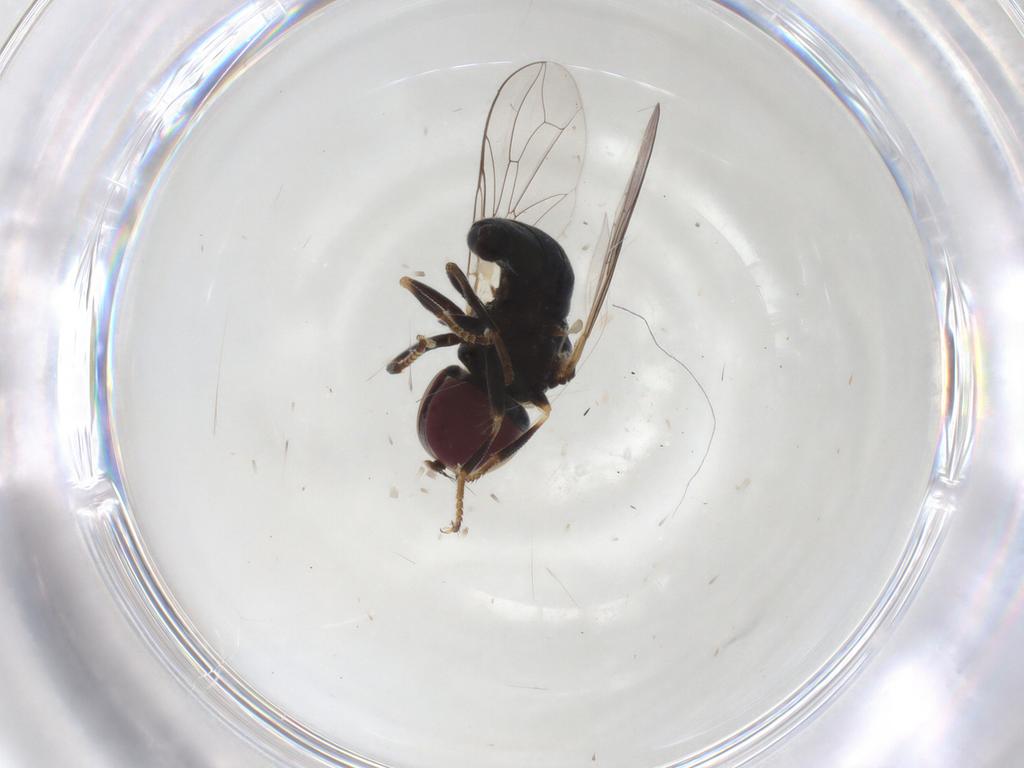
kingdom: Animalia
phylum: Arthropoda
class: Insecta
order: Diptera
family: Pipunculidae
